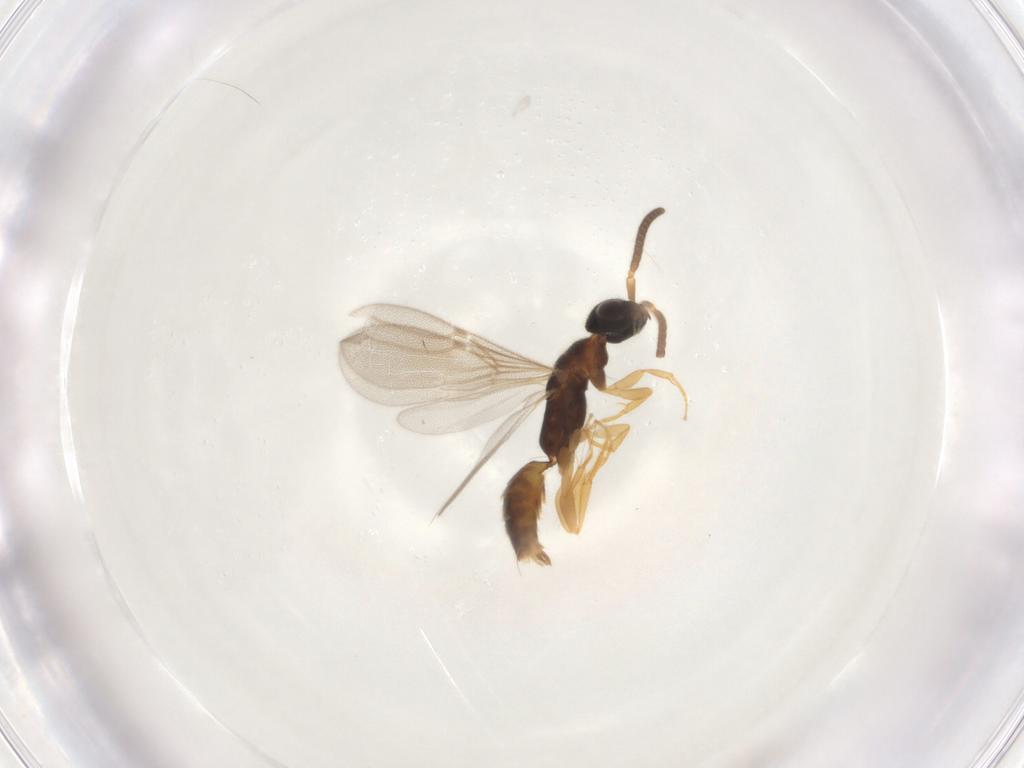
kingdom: Animalia
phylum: Arthropoda
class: Insecta
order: Hymenoptera
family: Bethylidae
